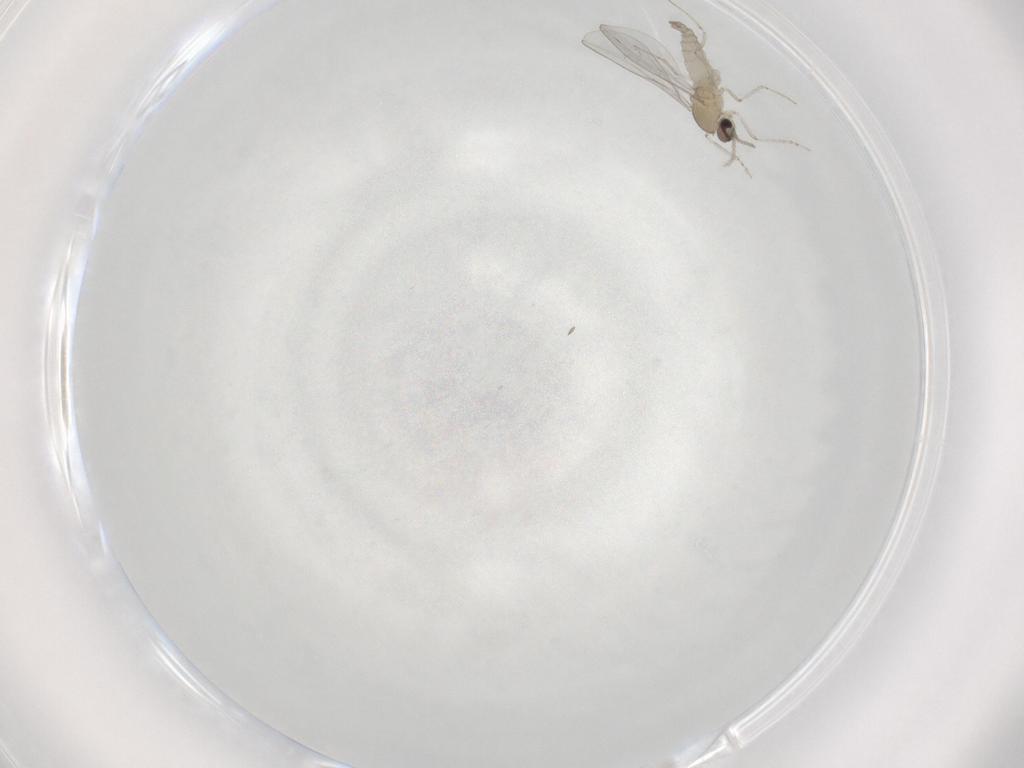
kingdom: Animalia
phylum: Arthropoda
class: Insecta
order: Diptera
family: Cecidomyiidae
